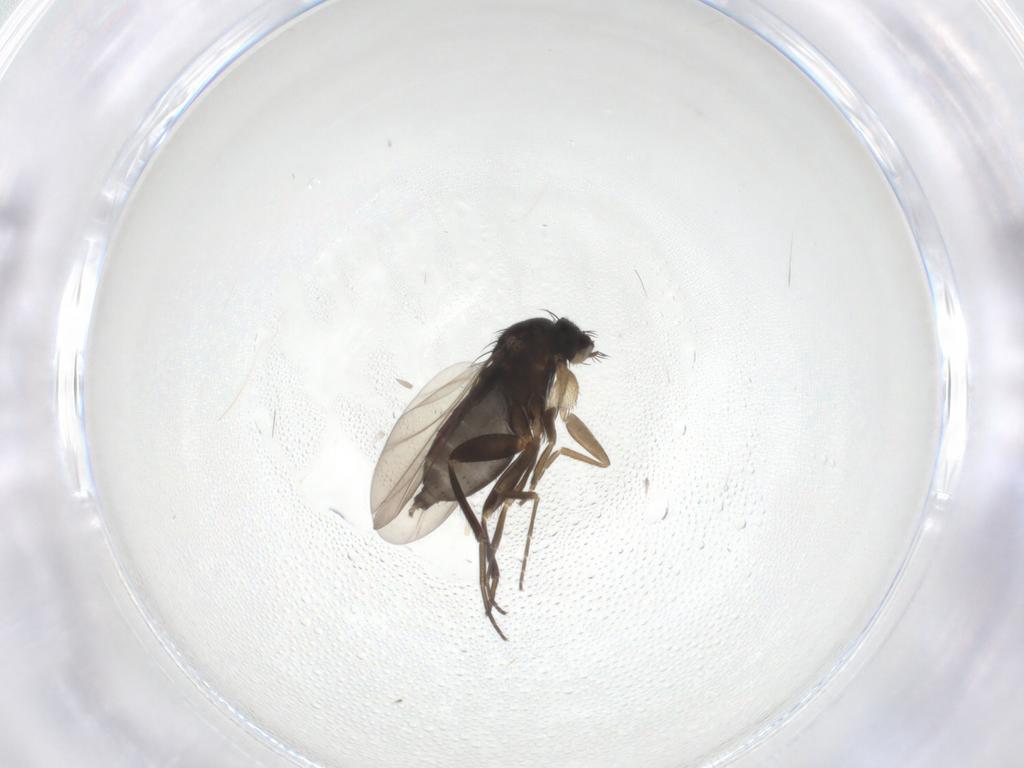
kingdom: Animalia
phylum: Arthropoda
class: Insecta
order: Diptera
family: Phoridae
